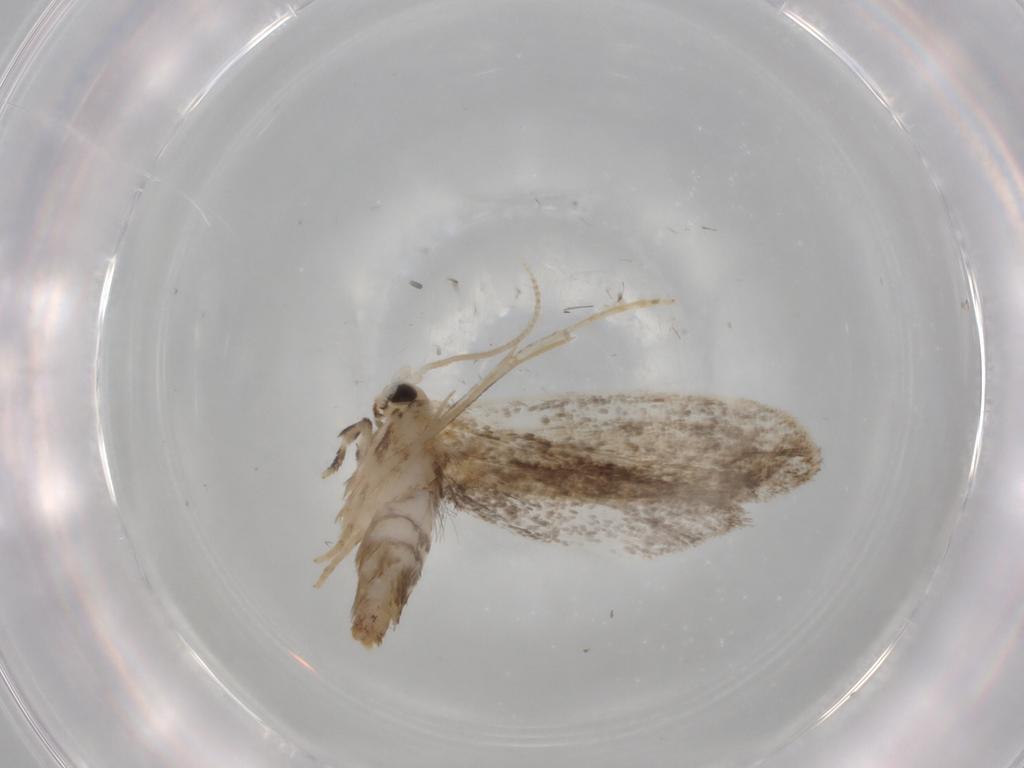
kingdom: Animalia
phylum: Arthropoda
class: Insecta
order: Lepidoptera
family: Dryadaulidae
